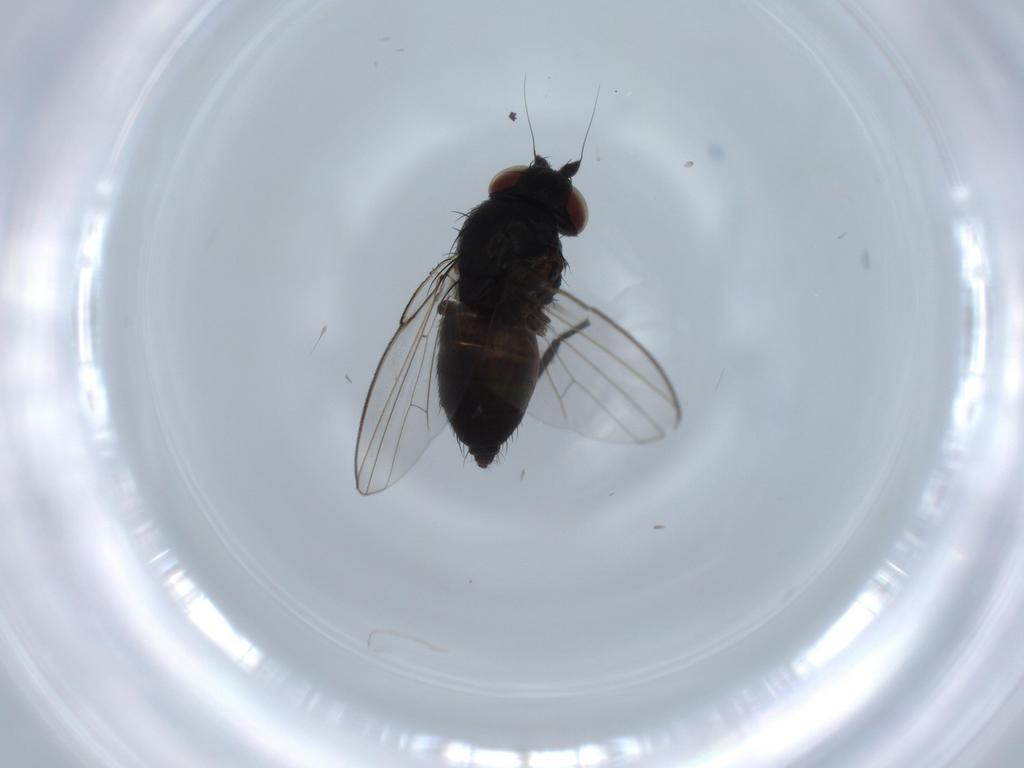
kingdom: Animalia
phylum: Arthropoda
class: Insecta
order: Diptera
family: Milichiidae
